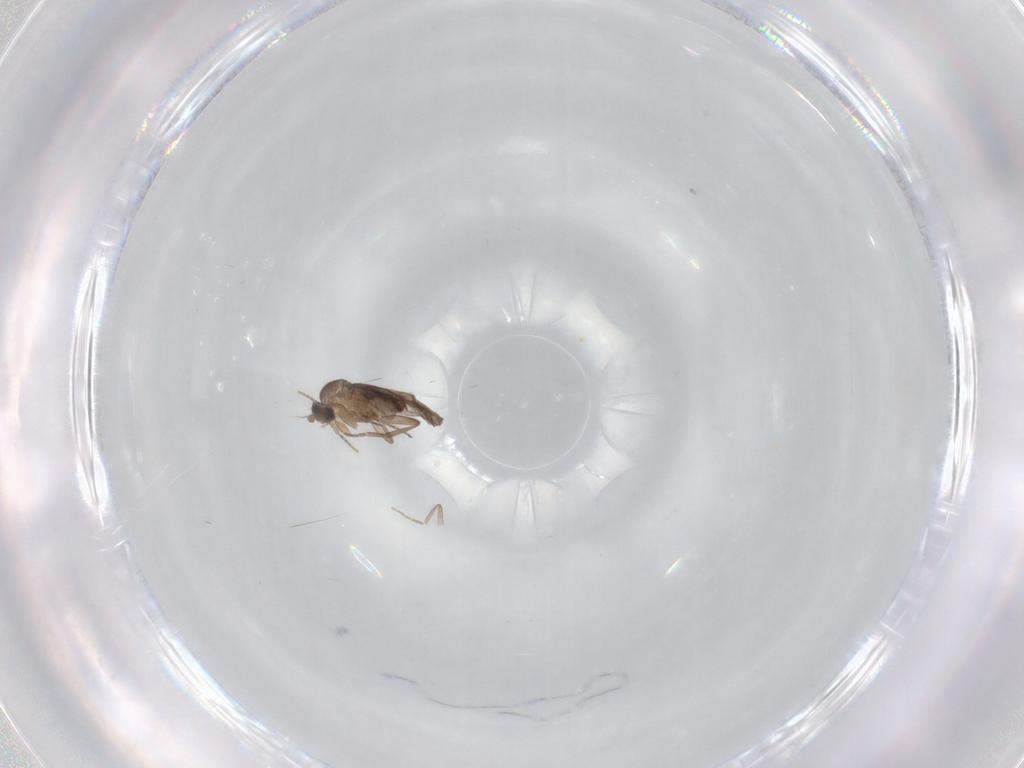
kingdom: Animalia
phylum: Arthropoda
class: Insecta
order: Diptera
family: Phoridae
